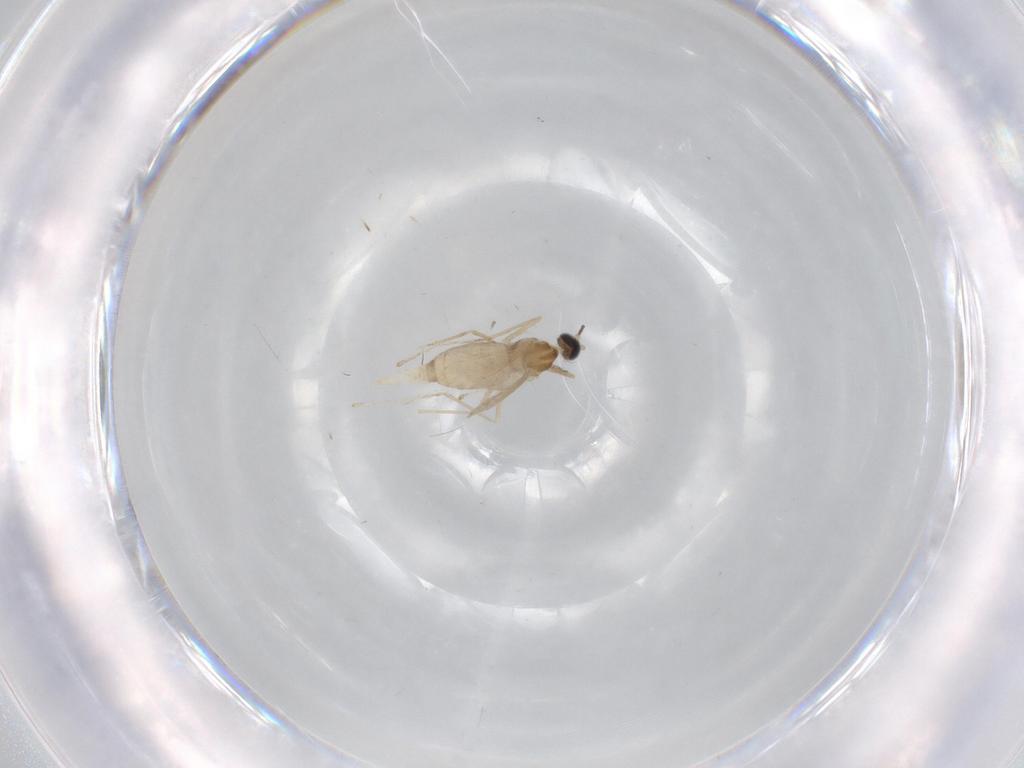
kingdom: Animalia
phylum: Arthropoda
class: Insecta
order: Diptera
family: Cecidomyiidae
